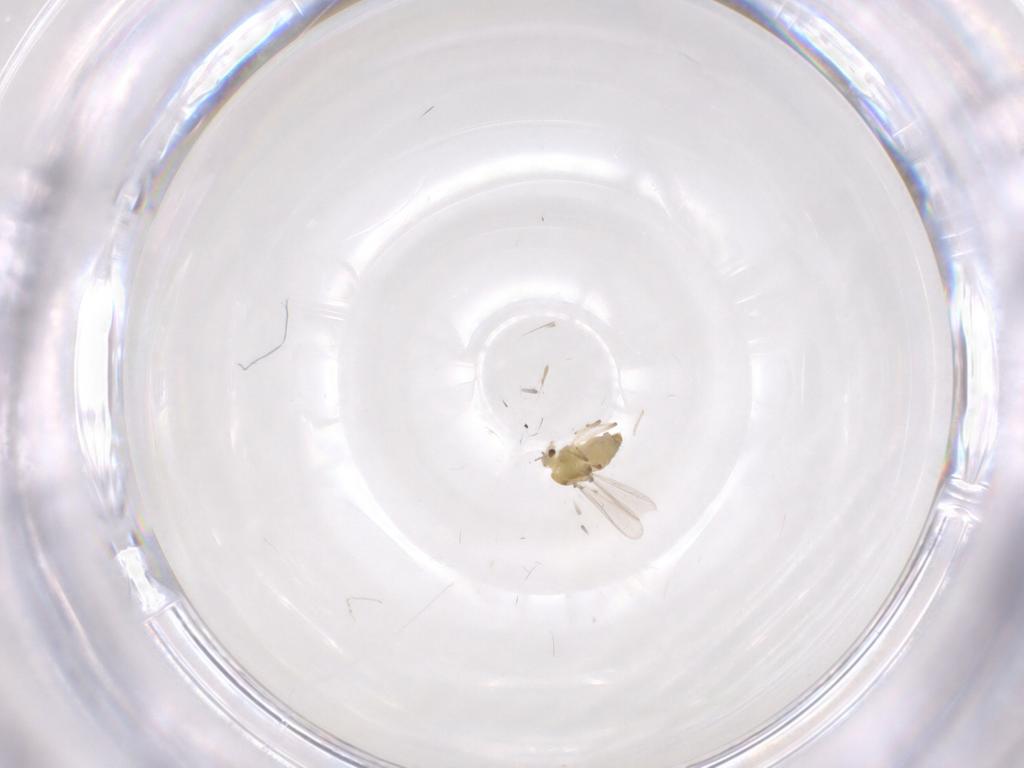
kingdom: Animalia
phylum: Arthropoda
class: Insecta
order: Diptera
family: Chironomidae
